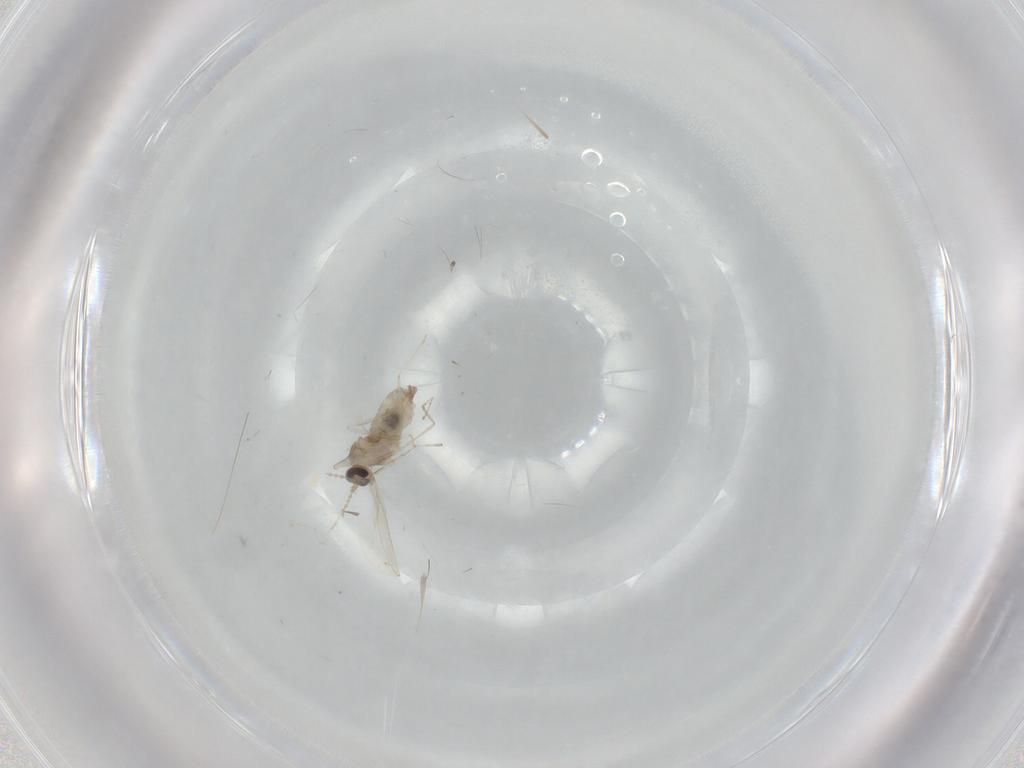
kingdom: Animalia
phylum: Arthropoda
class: Insecta
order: Diptera
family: Cecidomyiidae
